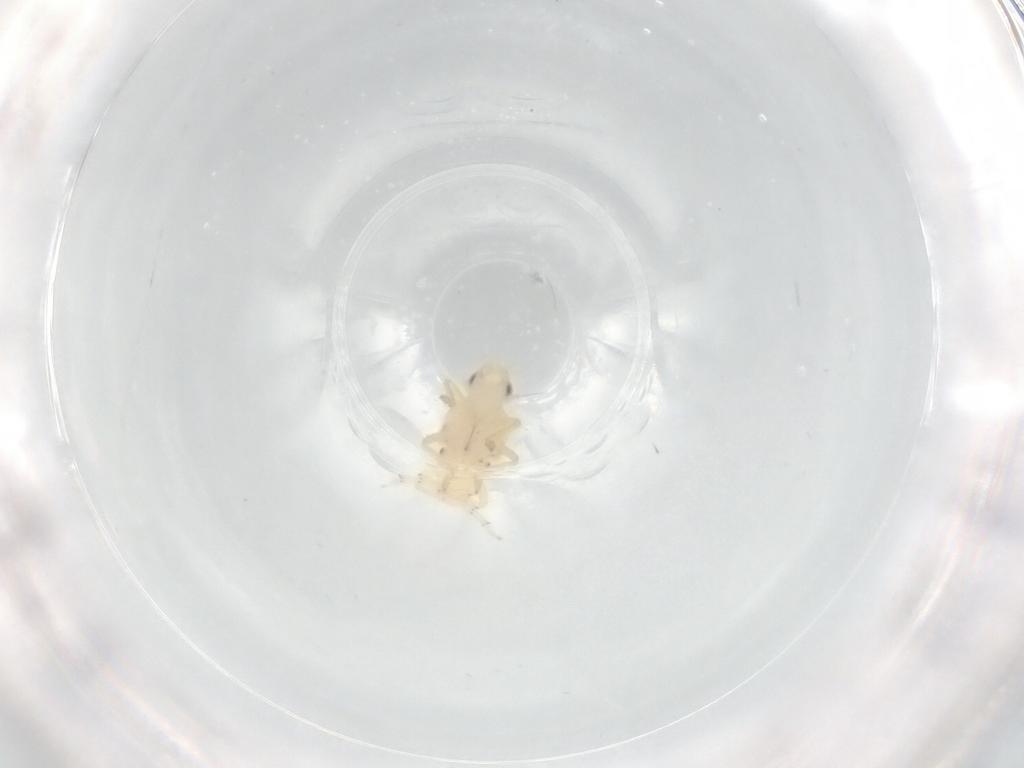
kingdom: Animalia
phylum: Arthropoda
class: Insecta
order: Hemiptera
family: Tropiduchidae
